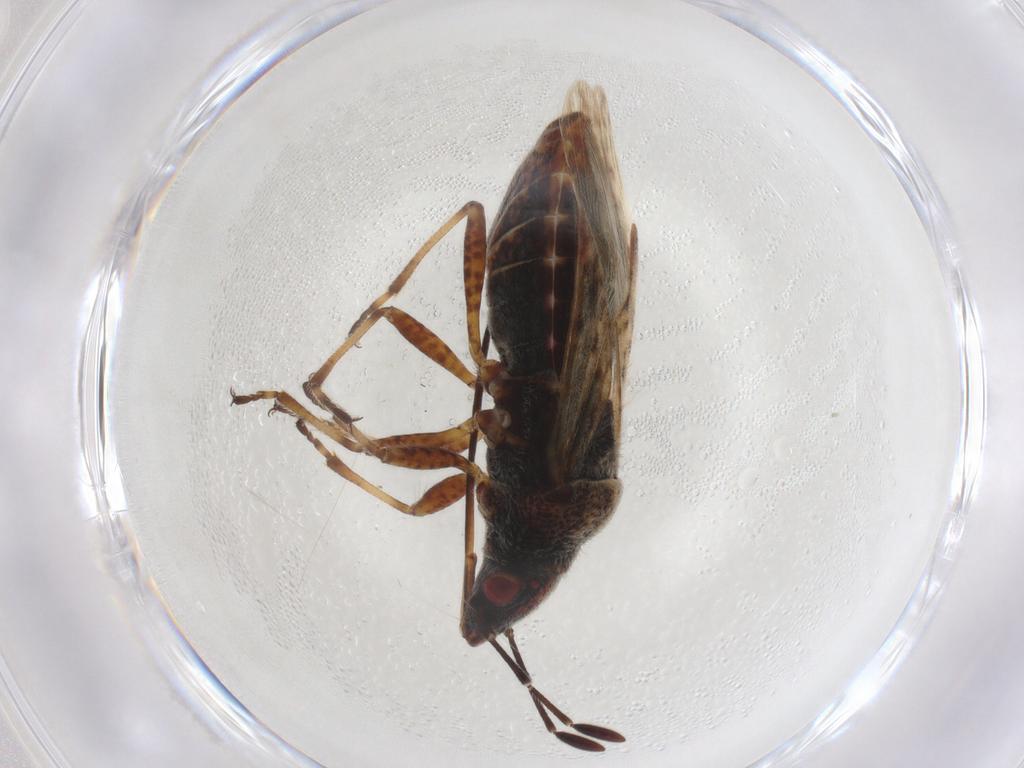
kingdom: Animalia
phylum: Arthropoda
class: Insecta
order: Hemiptera
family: Lygaeidae
